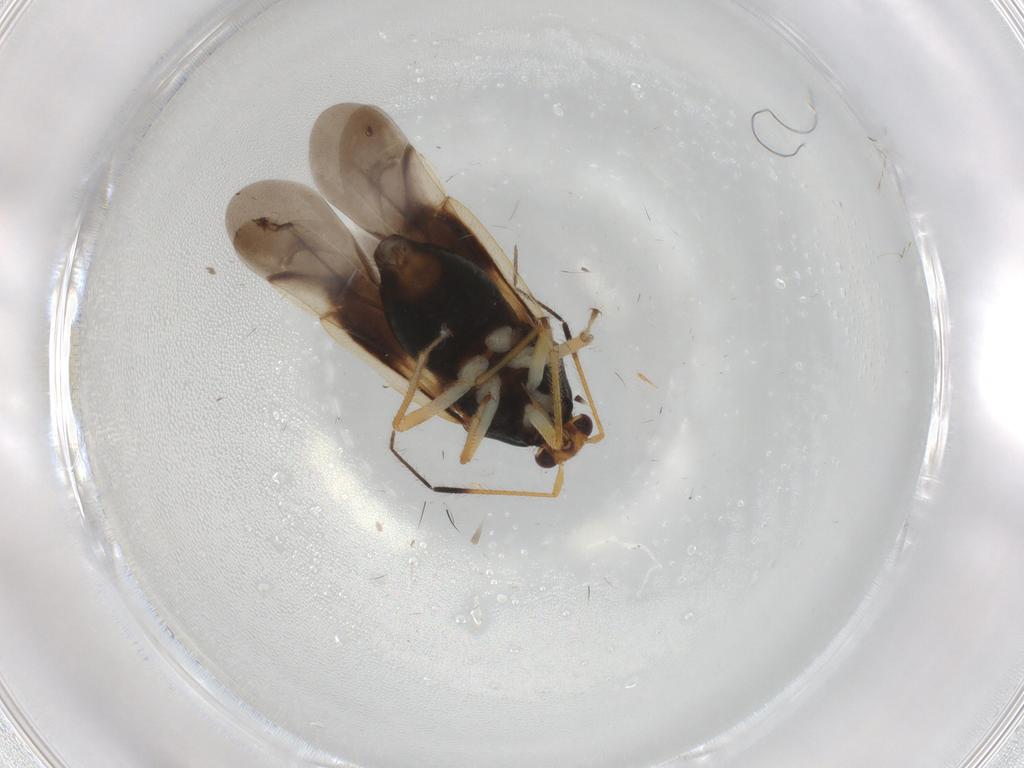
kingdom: Animalia
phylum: Arthropoda
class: Insecta
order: Hemiptera
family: Miridae
